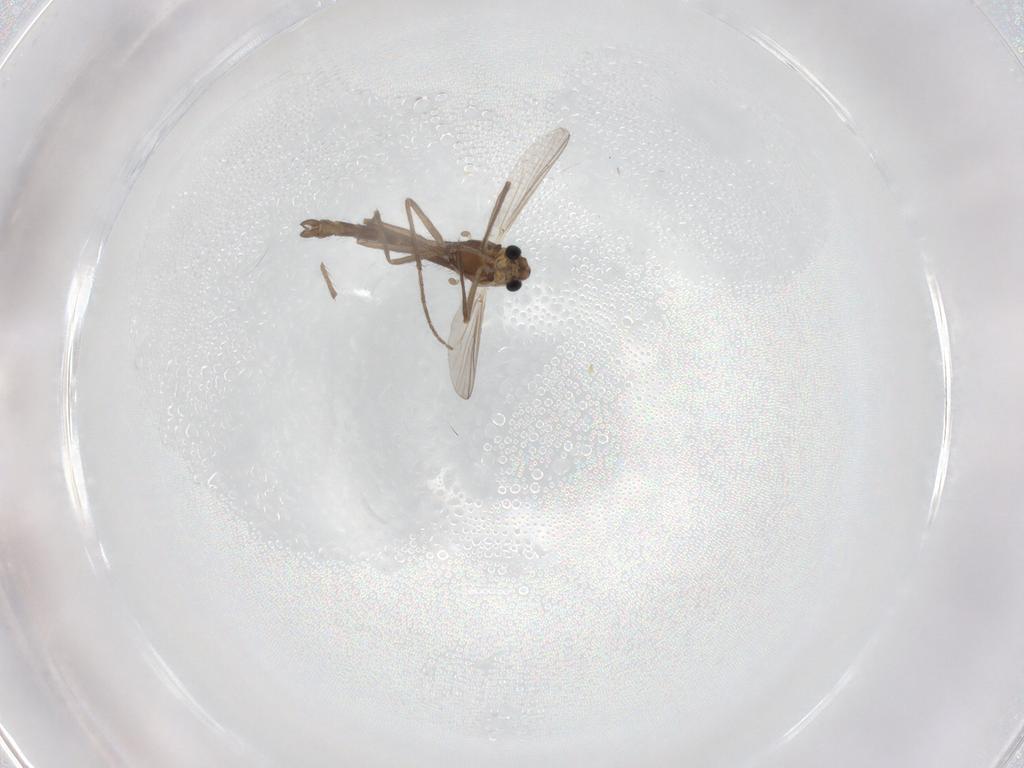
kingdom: Animalia
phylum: Arthropoda
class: Insecta
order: Diptera
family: Chironomidae
